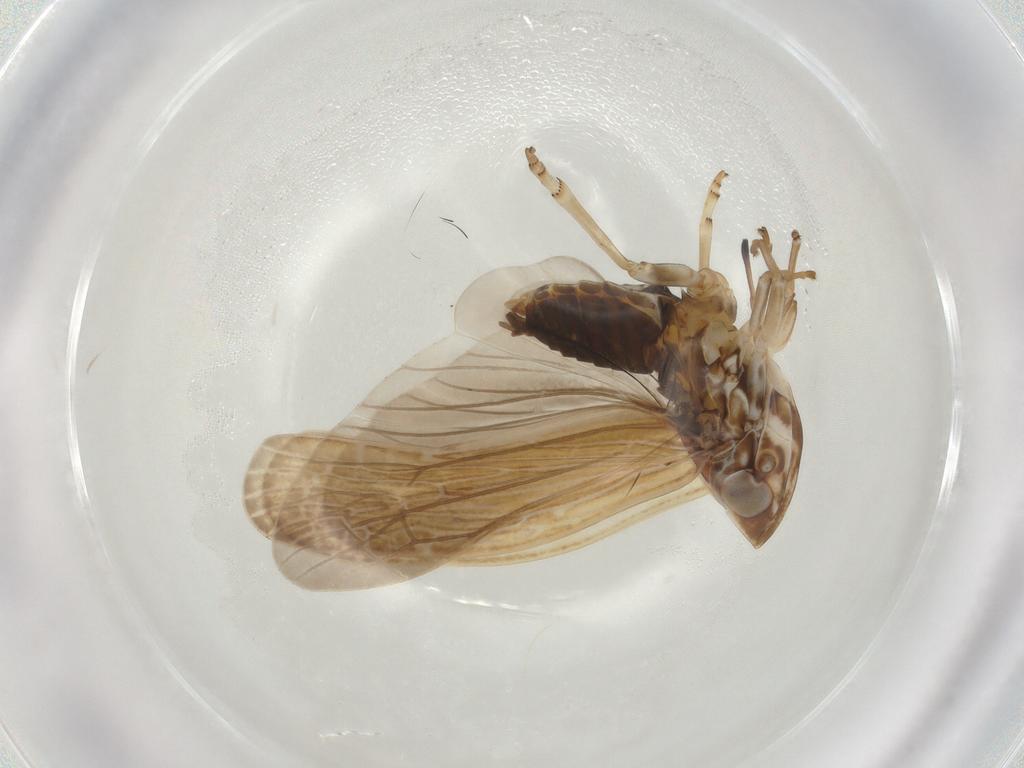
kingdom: Animalia
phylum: Arthropoda
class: Insecta
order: Hemiptera
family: Achilidae
